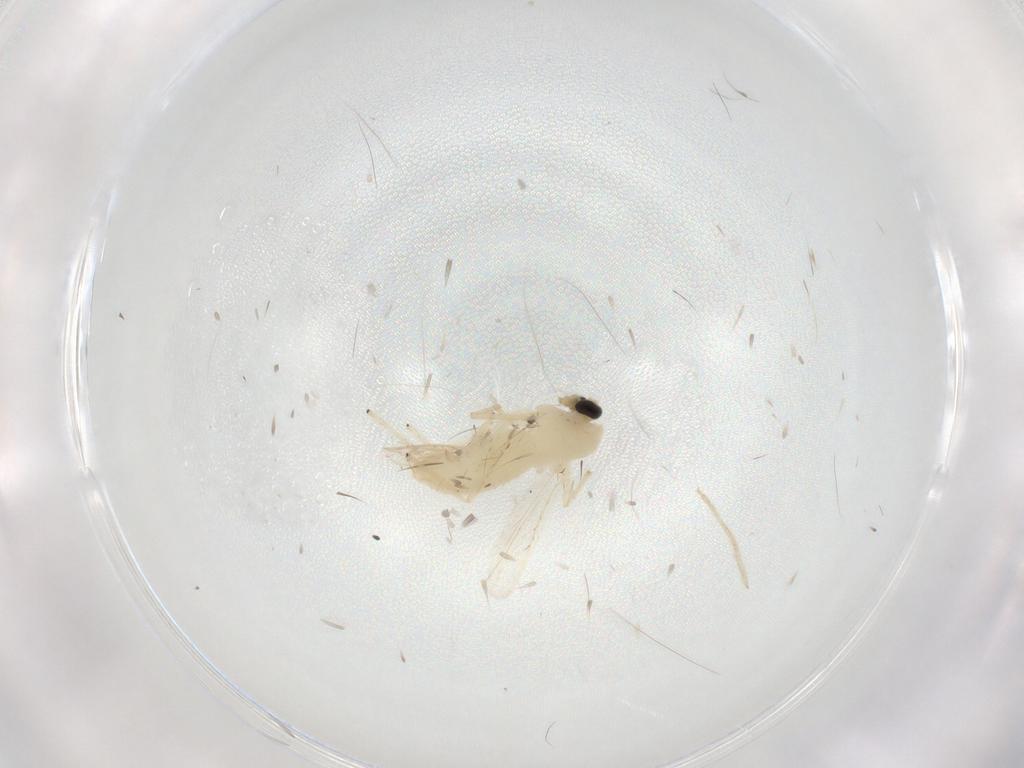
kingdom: Animalia
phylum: Arthropoda
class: Insecta
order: Diptera
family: Chironomidae
